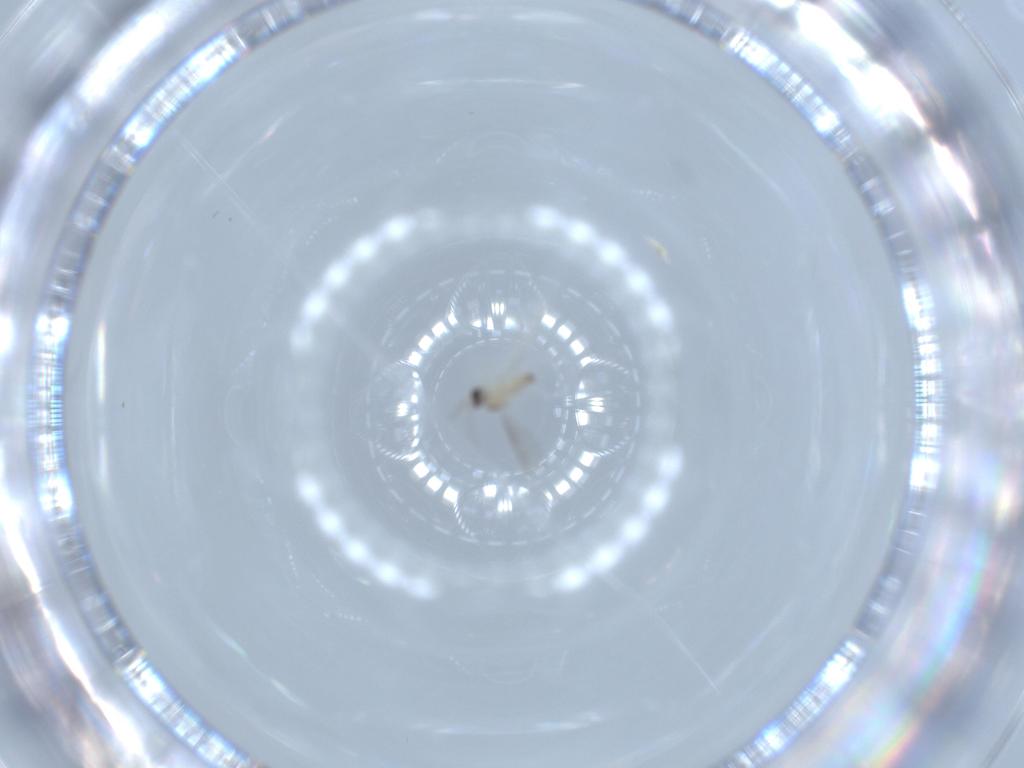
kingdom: Animalia
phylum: Arthropoda
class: Insecta
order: Diptera
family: Cecidomyiidae
